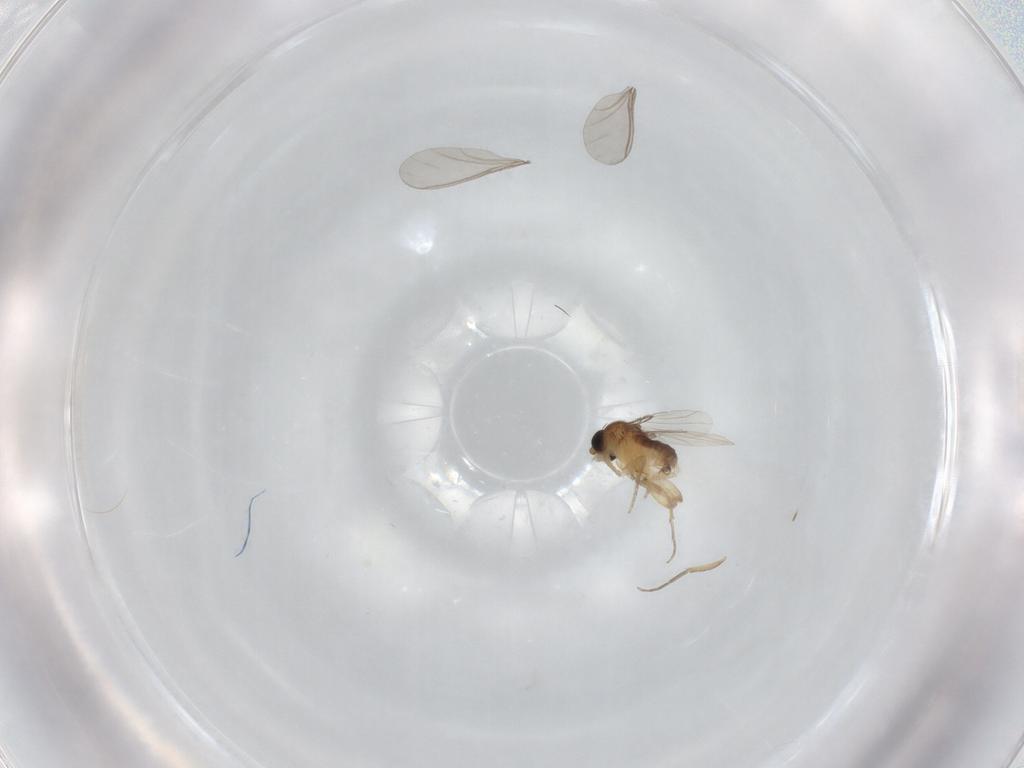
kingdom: Animalia
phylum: Arthropoda
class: Insecta
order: Diptera
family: Phoridae
